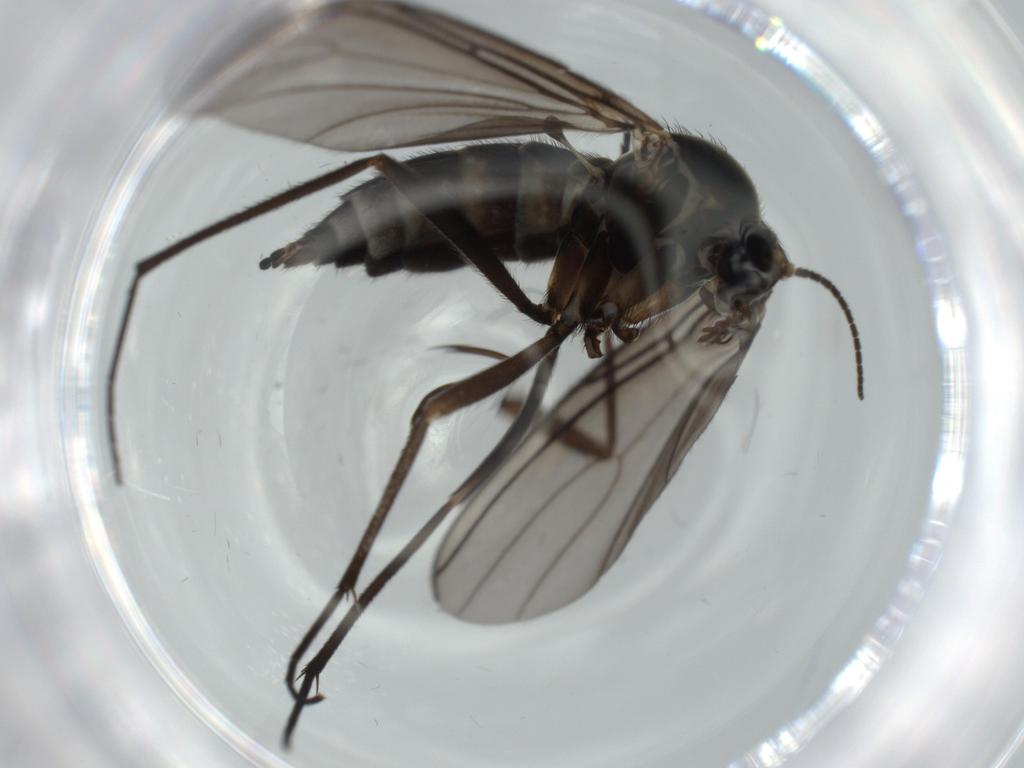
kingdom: Animalia
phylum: Arthropoda
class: Insecta
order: Diptera
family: Sciaridae
